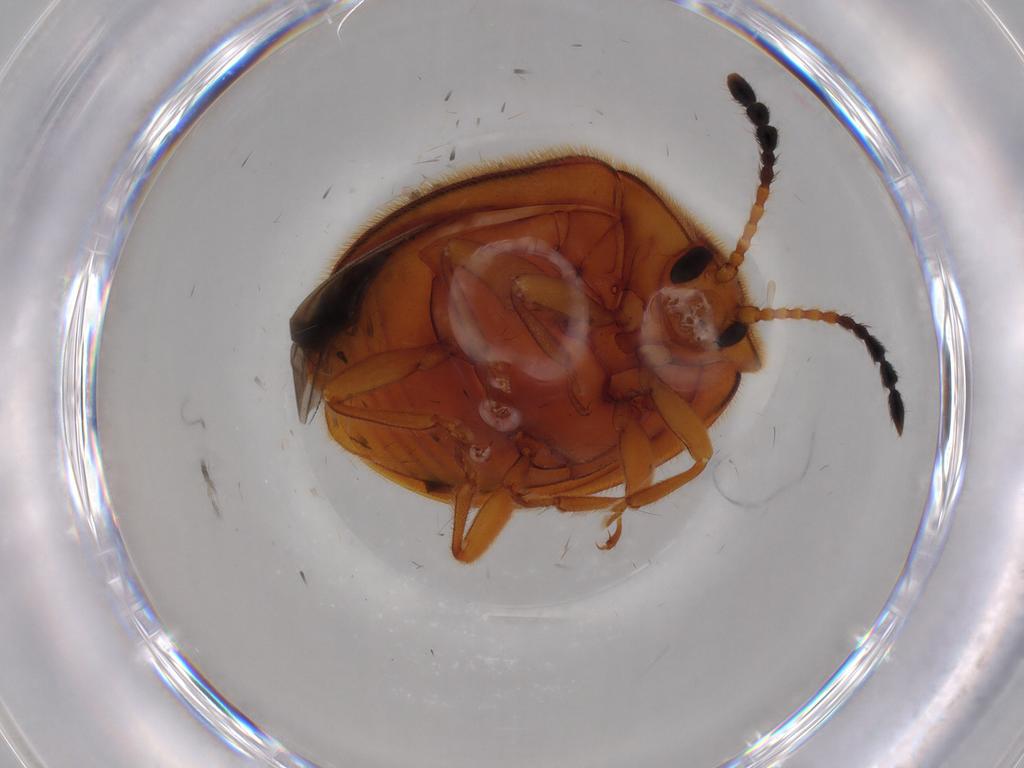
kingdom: Animalia
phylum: Arthropoda
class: Insecta
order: Coleoptera
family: Endomychidae
